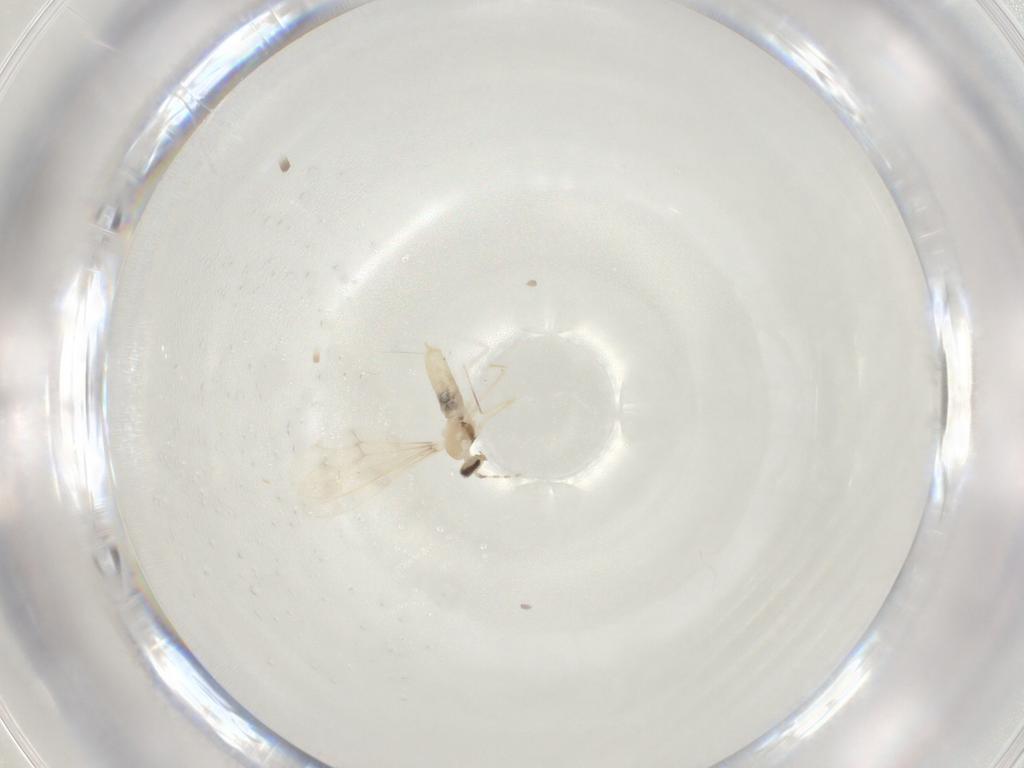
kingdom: Animalia
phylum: Arthropoda
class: Insecta
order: Diptera
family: Cecidomyiidae
